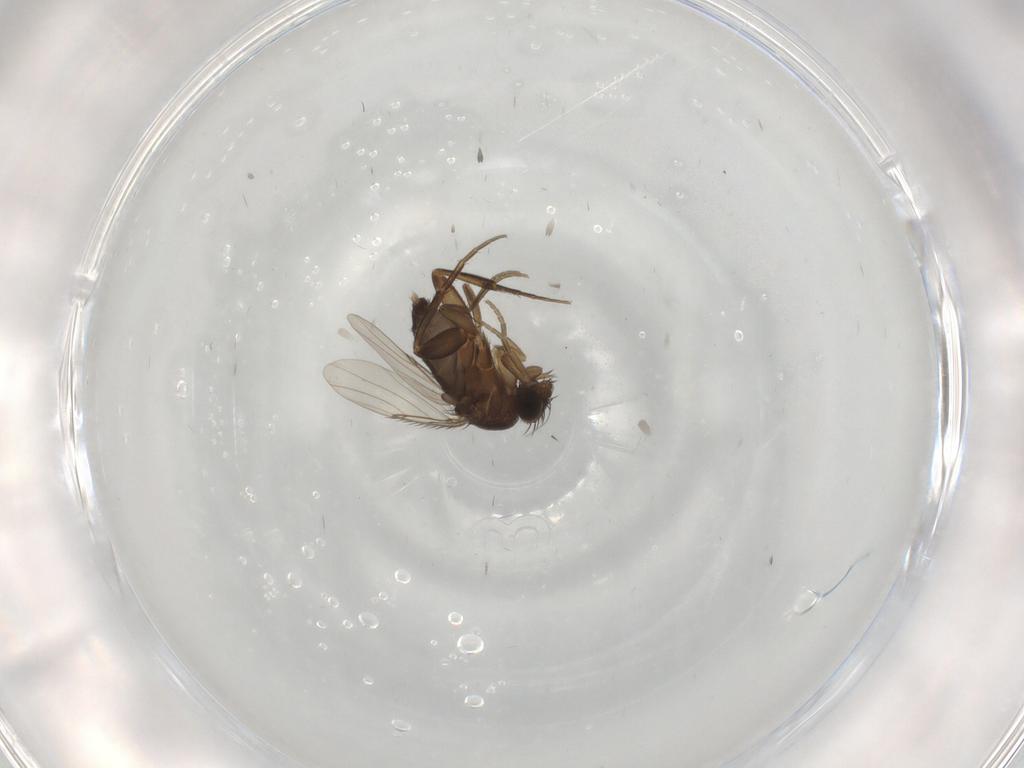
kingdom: Animalia
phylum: Arthropoda
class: Insecta
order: Diptera
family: Phoridae
